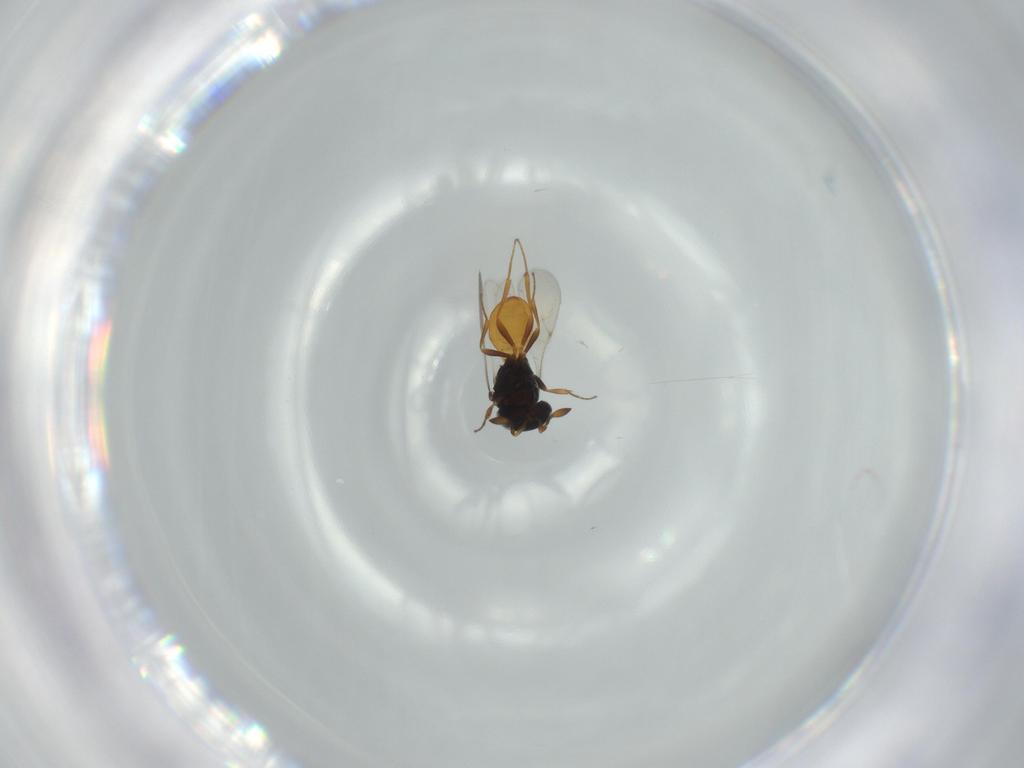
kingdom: Animalia
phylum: Arthropoda
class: Insecta
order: Hymenoptera
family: Scelionidae
